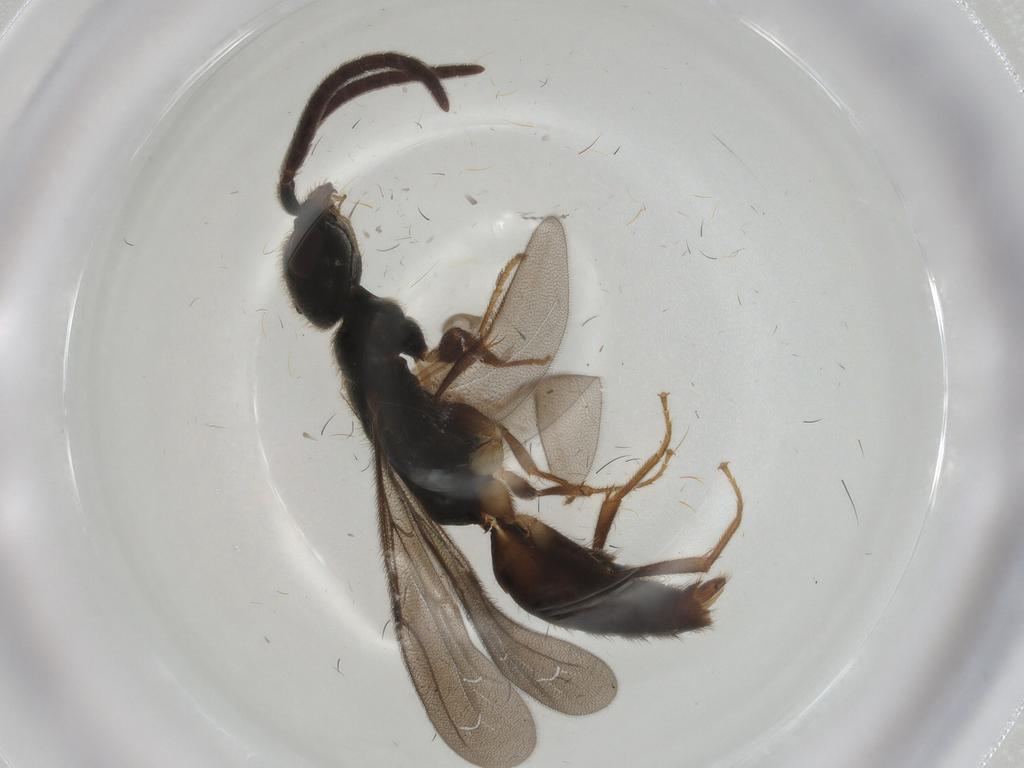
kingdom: Animalia
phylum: Arthropoda
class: Insecta
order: Hymenoptera
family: Bethylidae
